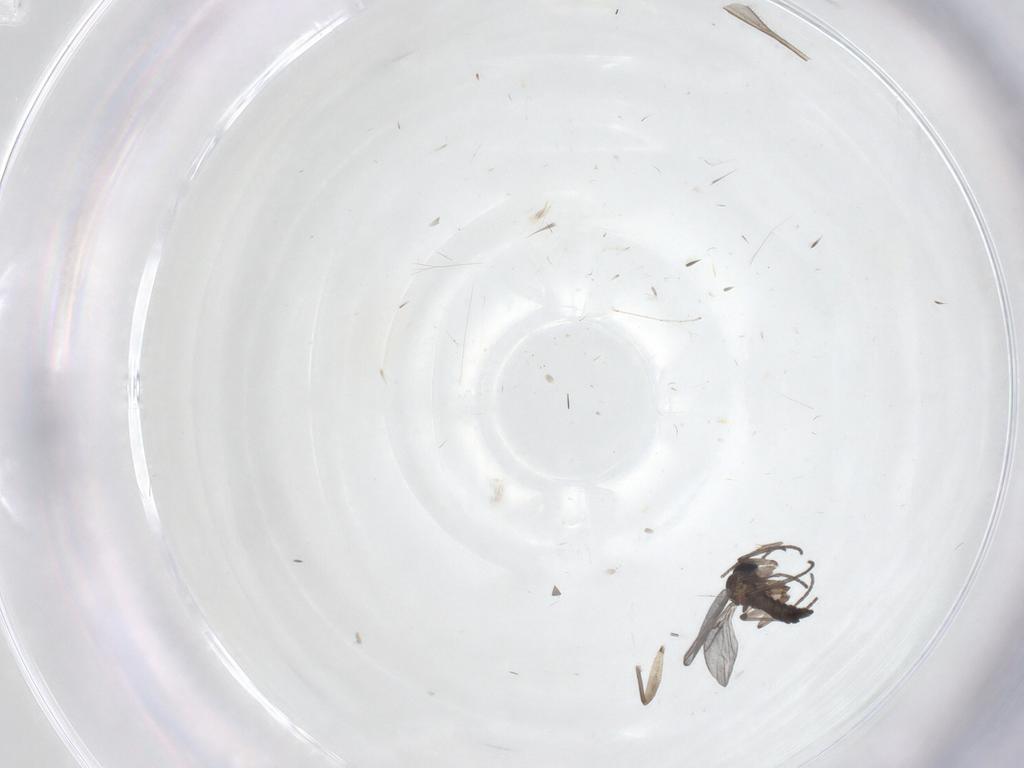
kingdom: Animalia
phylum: Arthropoda
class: Insecta
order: Diptera
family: Sciaridae
